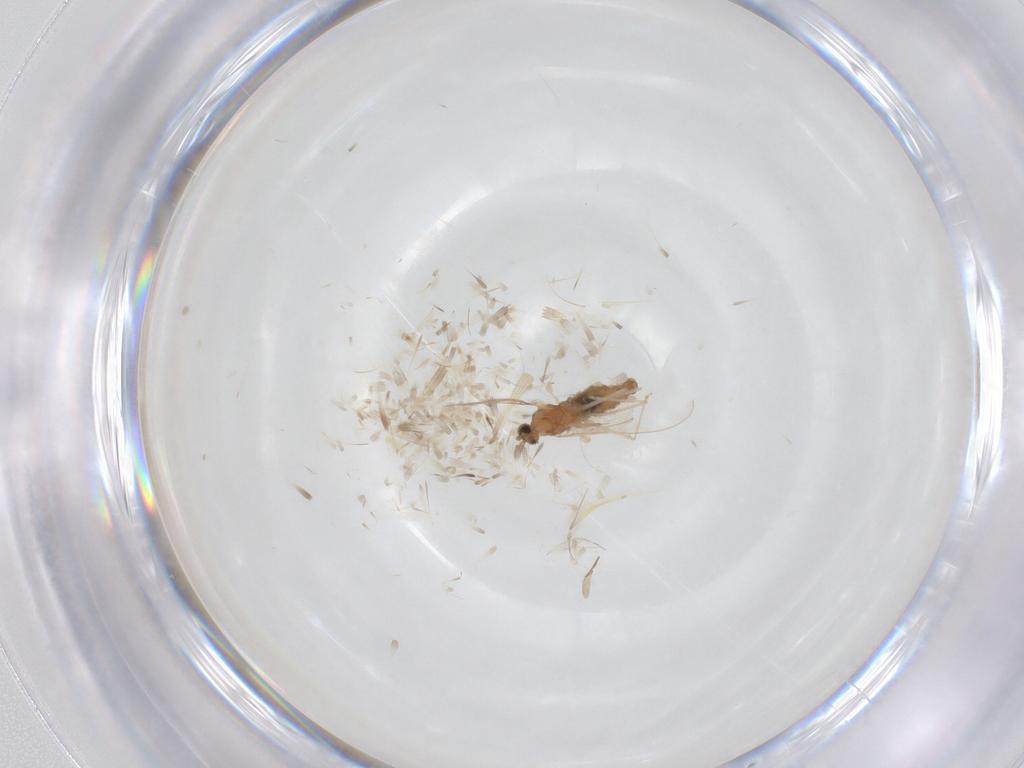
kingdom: Animalia
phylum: Arthropoda
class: Insecta
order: Diptera
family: Cecidomyiidae
